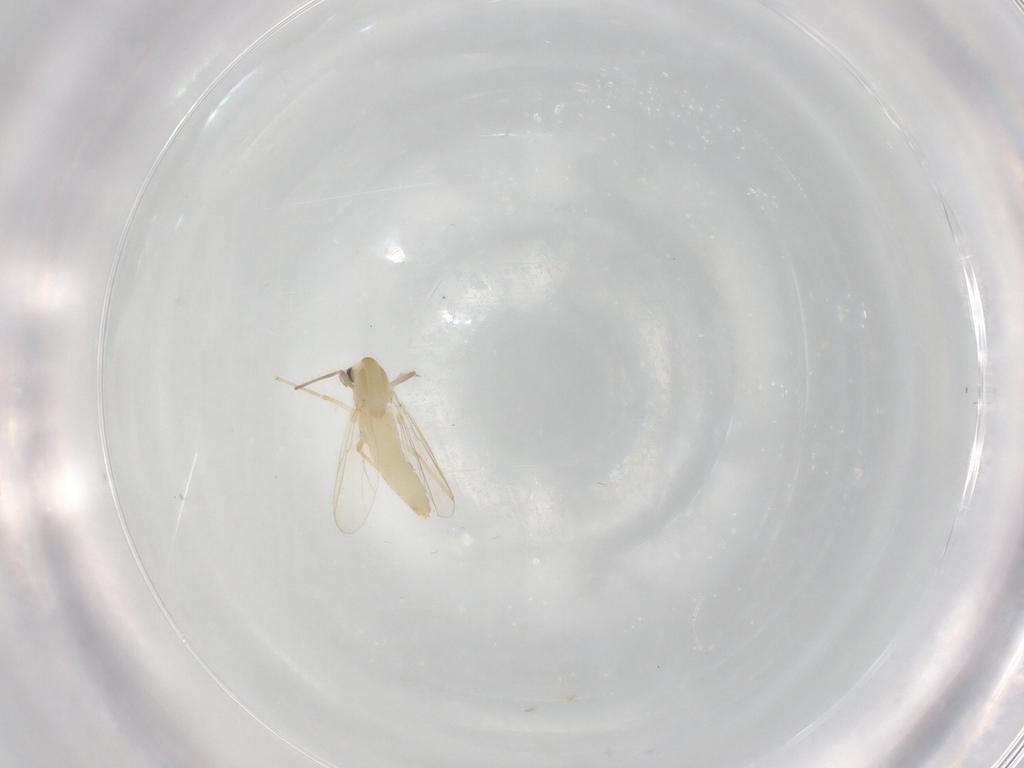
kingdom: Animalia
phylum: Arthropoda
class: Insecta
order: Diptera
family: Chironomidae
